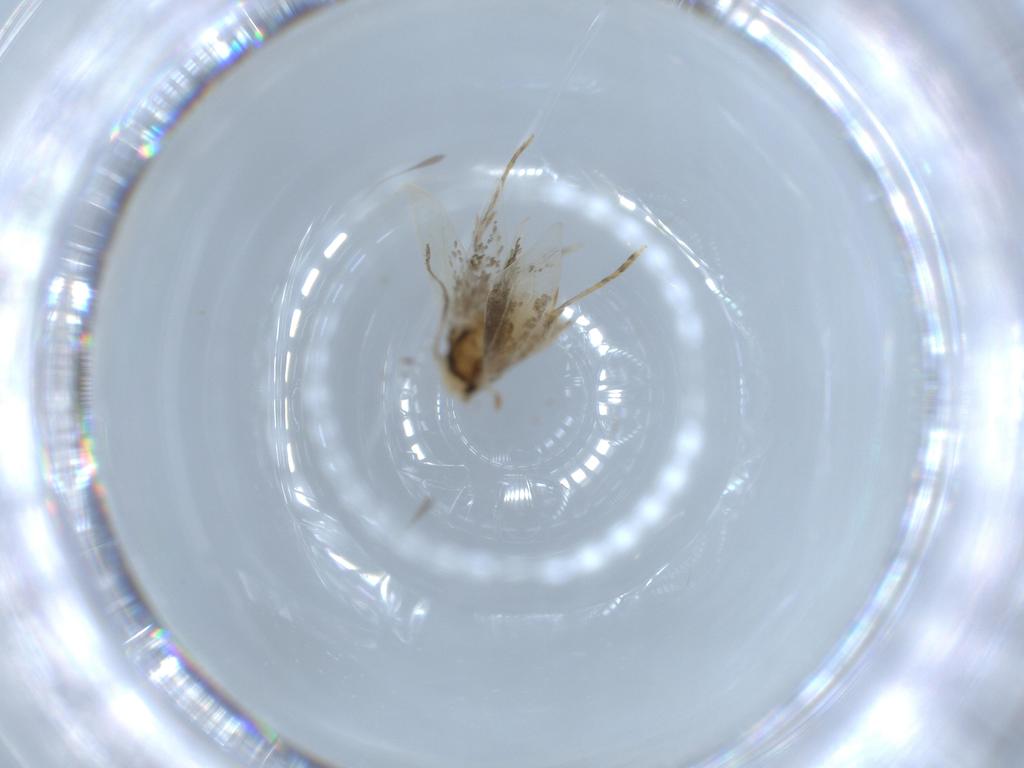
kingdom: Animalia
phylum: Arthropoda
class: Insecta
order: Lepidoptera
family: Tineidae
